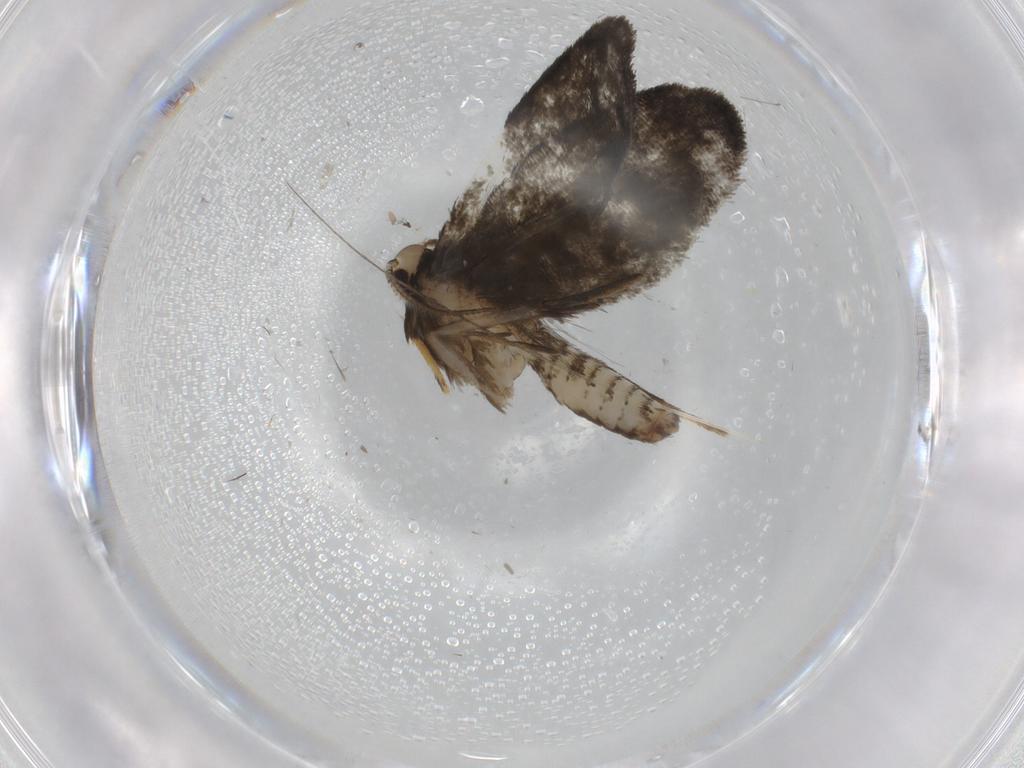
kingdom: Animalia
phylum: Arthropoda
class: Insecta
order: Lepidoptera
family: Psychidae
